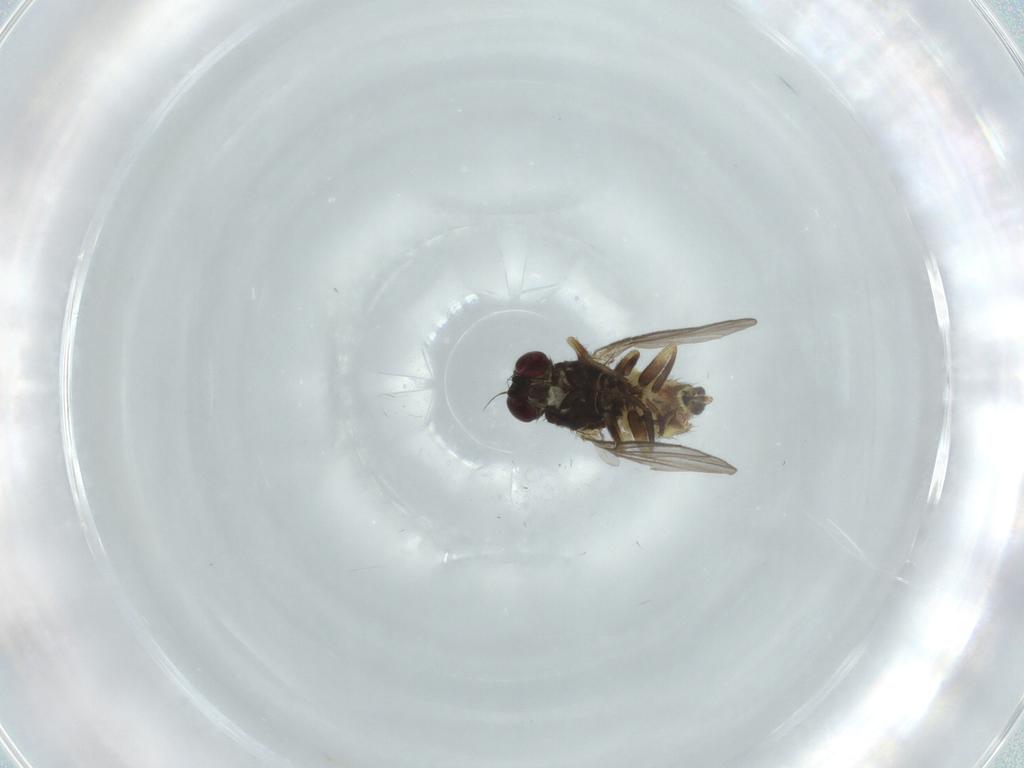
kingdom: Animalia
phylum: Arthropoda
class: Insecta
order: Diptera
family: Agromyzidae
